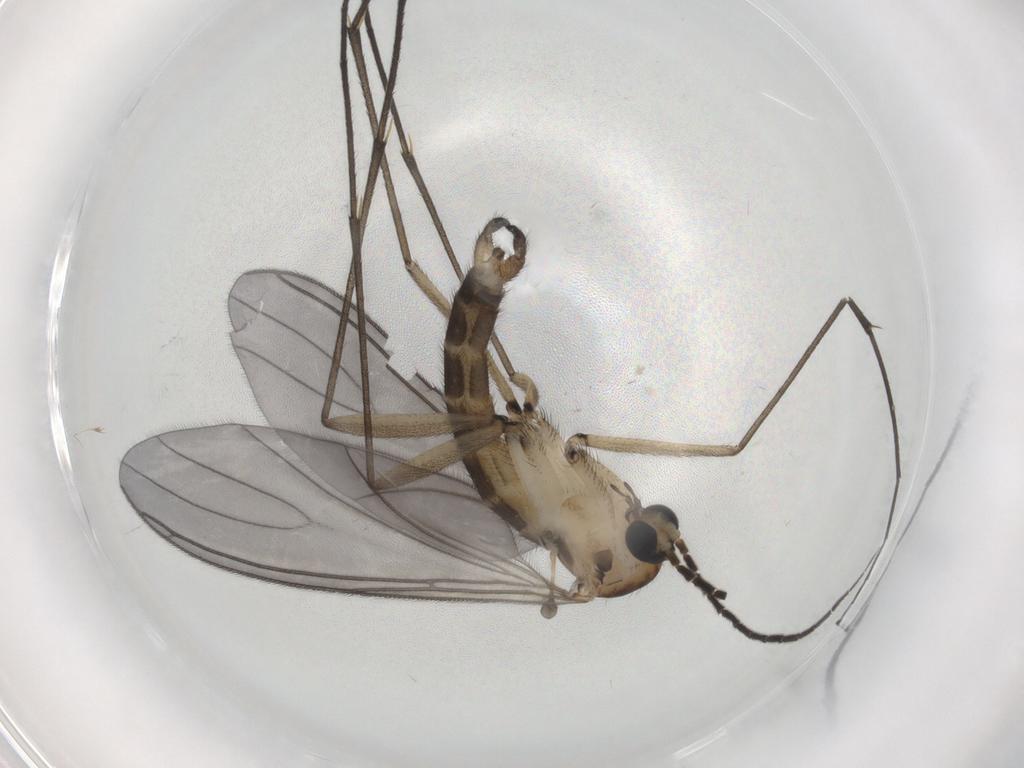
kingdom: Animalia
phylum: Arthropoda
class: Insecta
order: Diptera
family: Sciaridae
